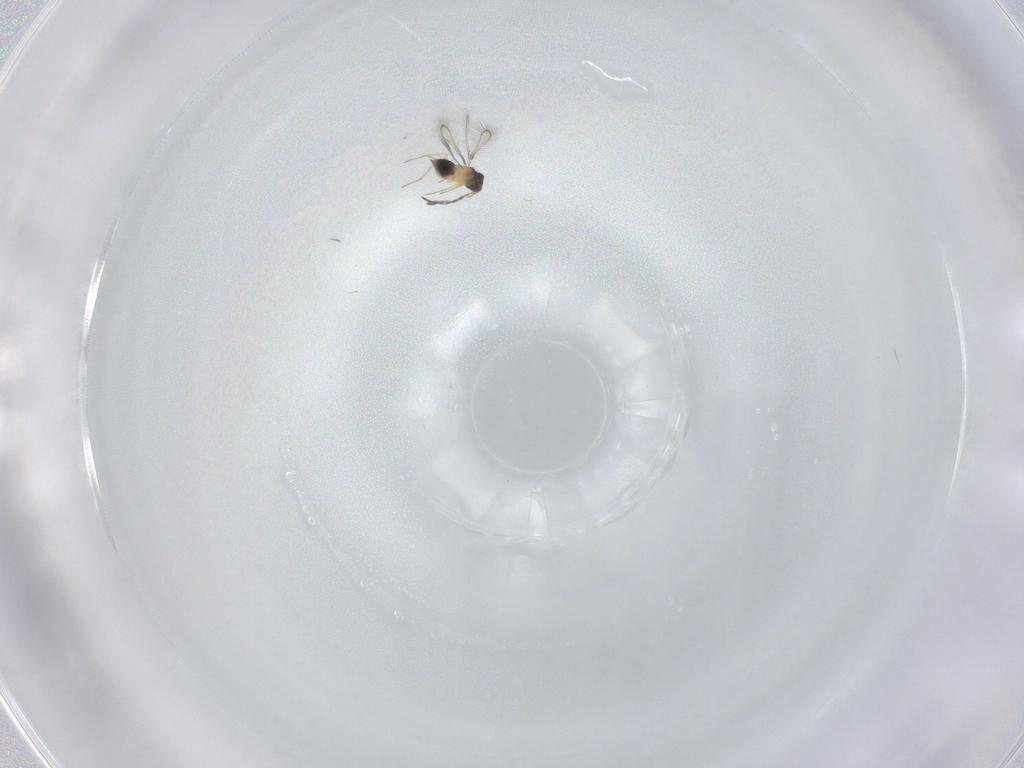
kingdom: Animalia
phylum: Arthropoda
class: Insecta
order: Hymenoptera
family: Mymaridae
